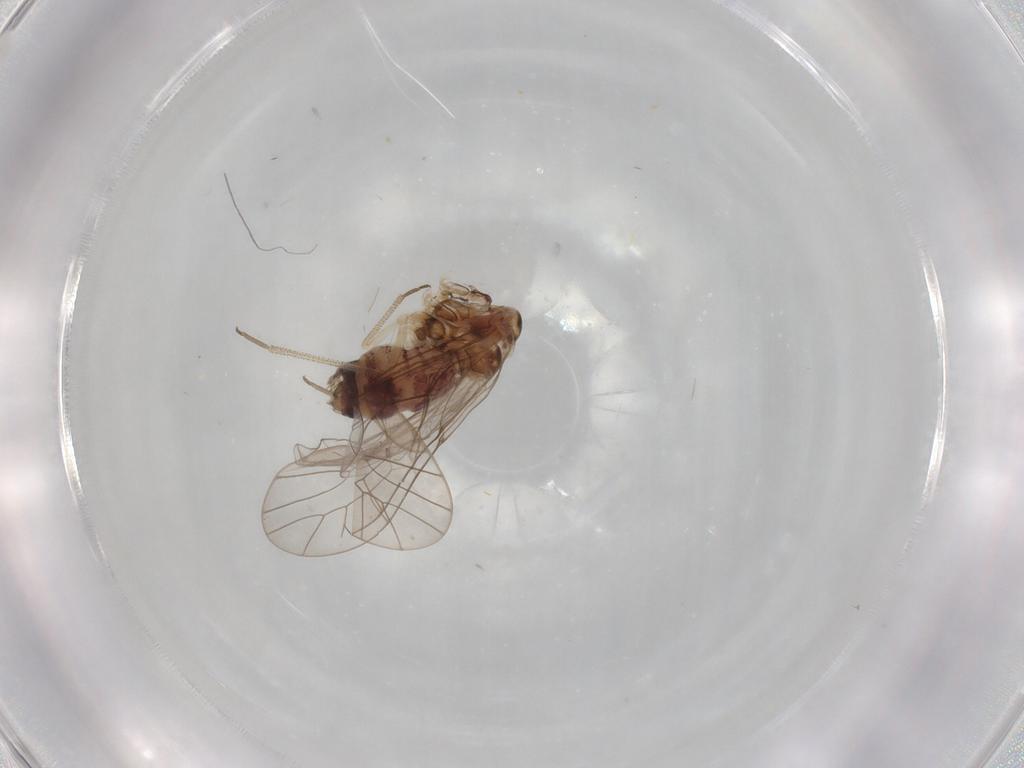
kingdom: Animalia
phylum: Arthropoda
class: Insecta
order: Psocodea
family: Psocidae
